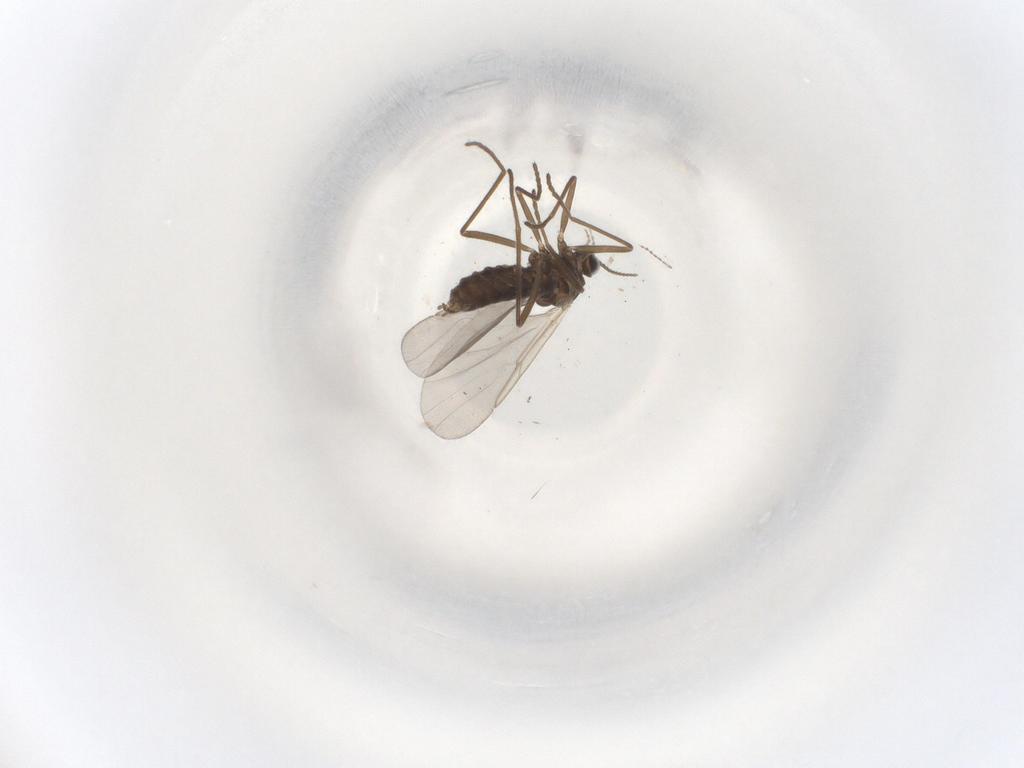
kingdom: Animalia
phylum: Arthropoda
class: Insecta
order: Diptera
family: Cecidomyiidae
